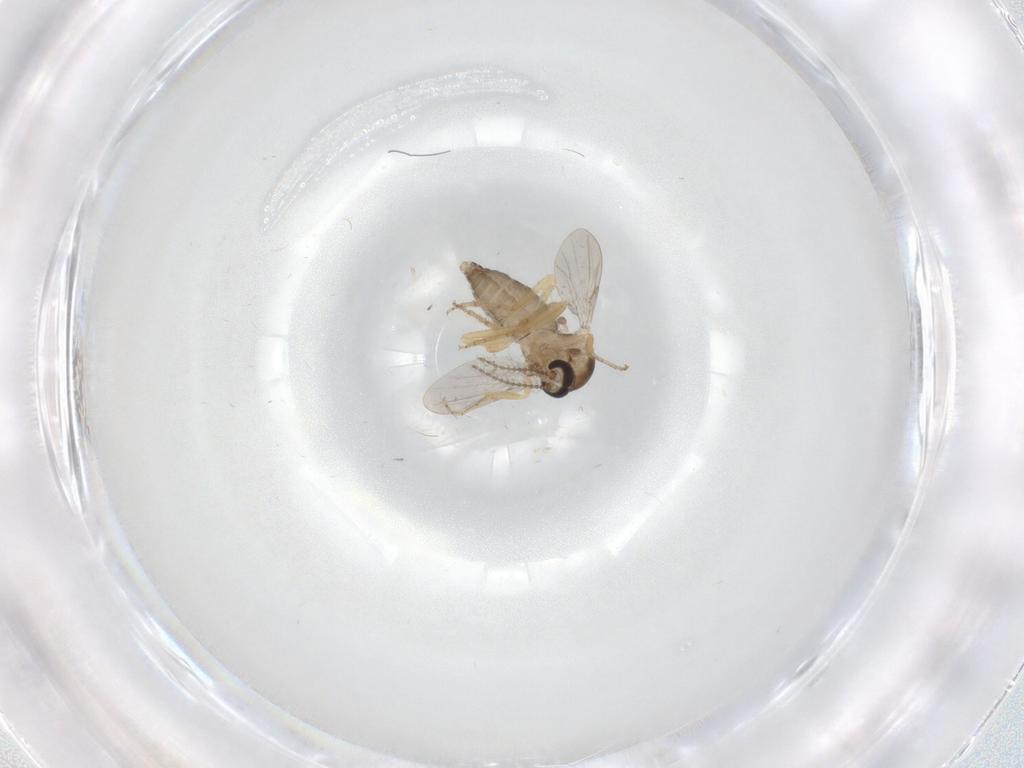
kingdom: Animalia
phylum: Arthropoda
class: Insecta
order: Diptera
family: Ceratopogonidae
